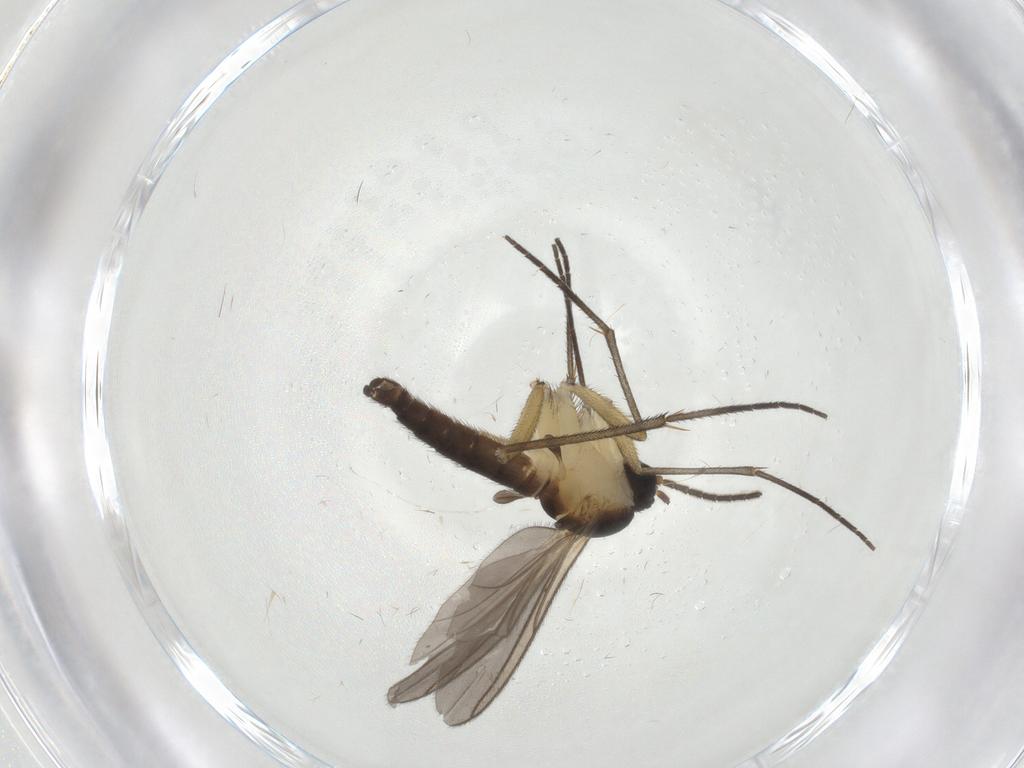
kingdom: Animalia
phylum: Arthropoda
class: Insecta
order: Diptera
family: Sciaridae
